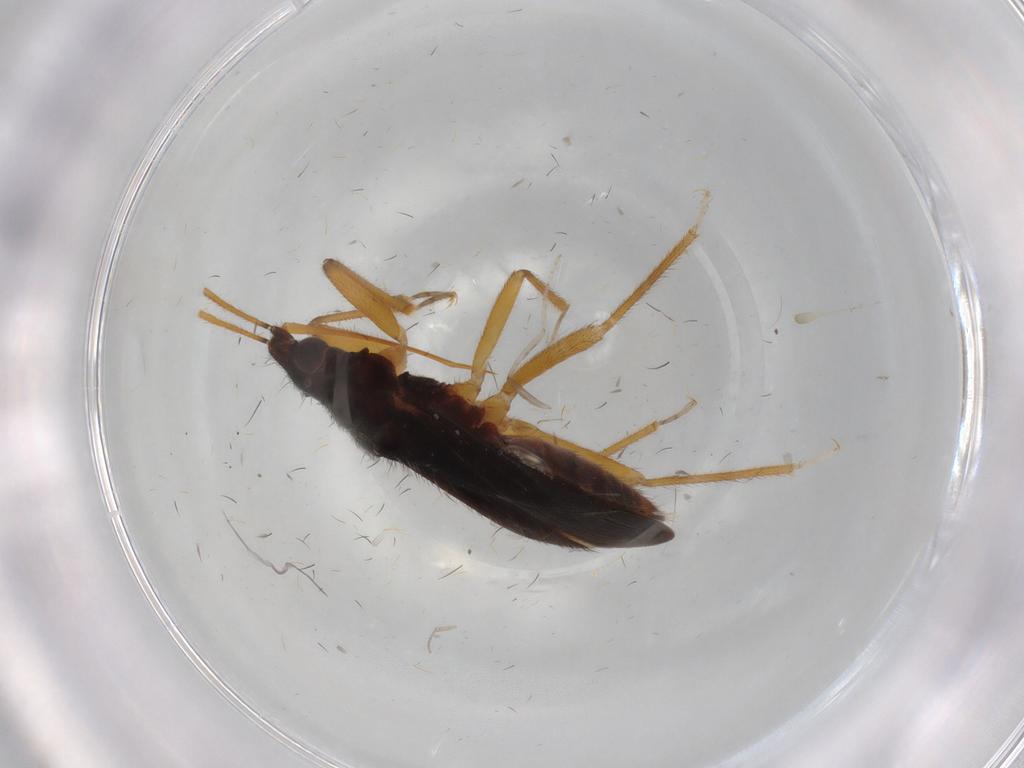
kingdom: Animalia
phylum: Arthropoda
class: Insecta
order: Hemiptera
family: Anthocoridae
